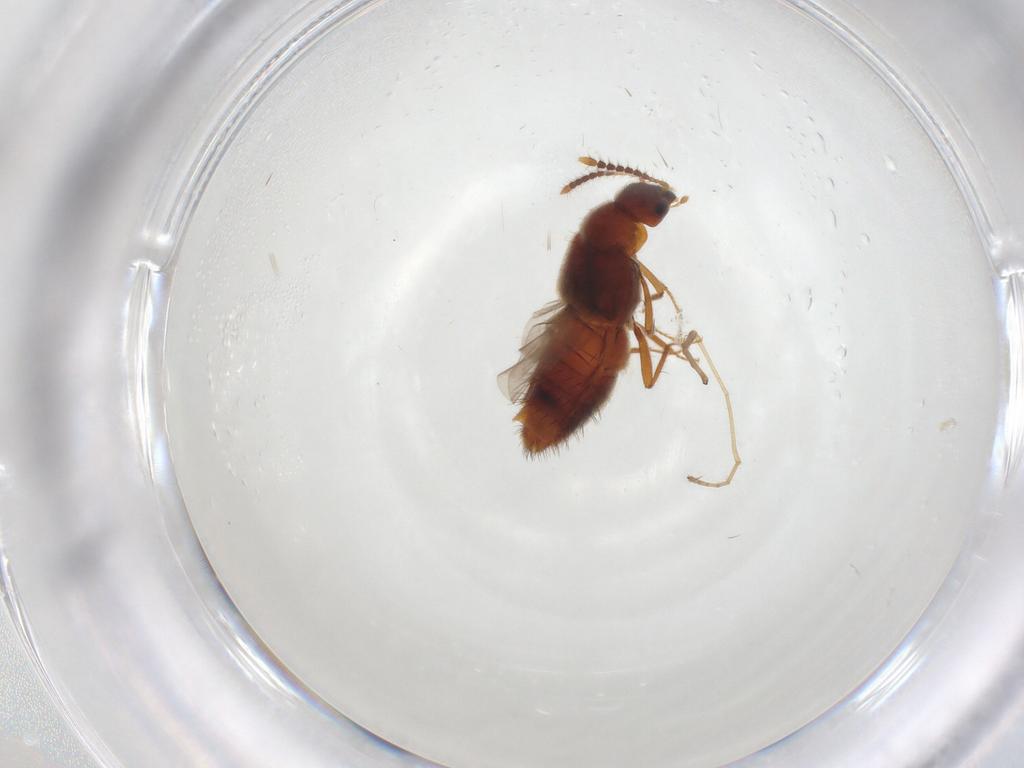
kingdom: Animalia
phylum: Arthropoda
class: Insecta
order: Coleoptera
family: Staphylinidae
